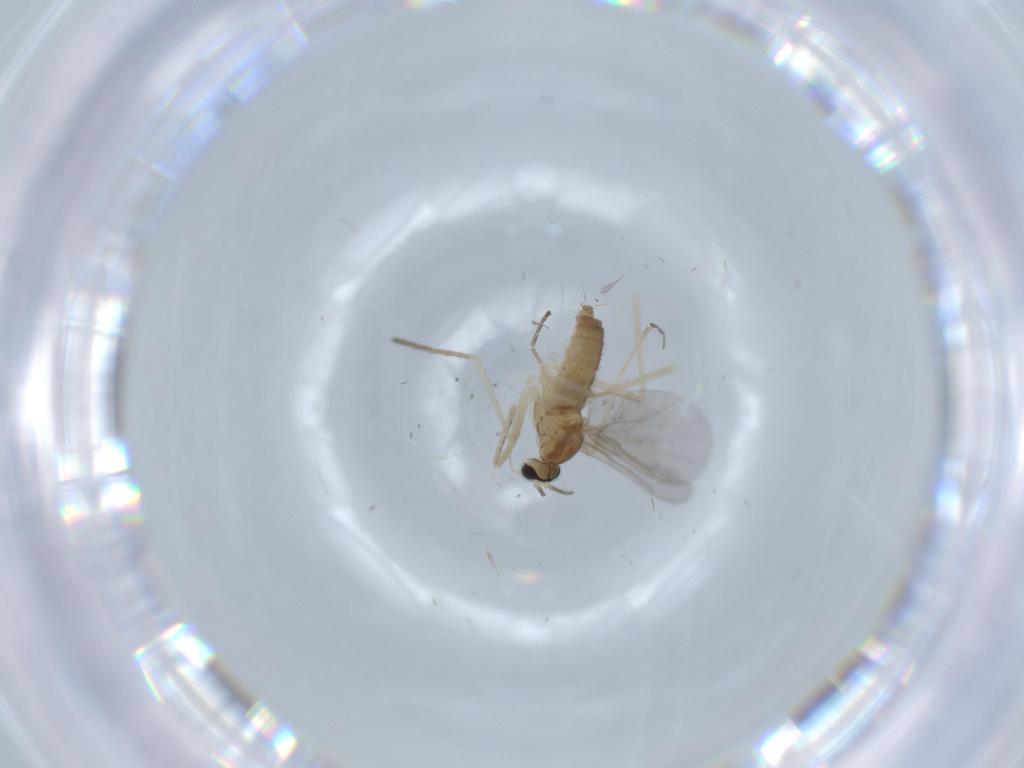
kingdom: Animalia
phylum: Arthropoda
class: Insecta
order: Diptera
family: Cecidomyiidae
